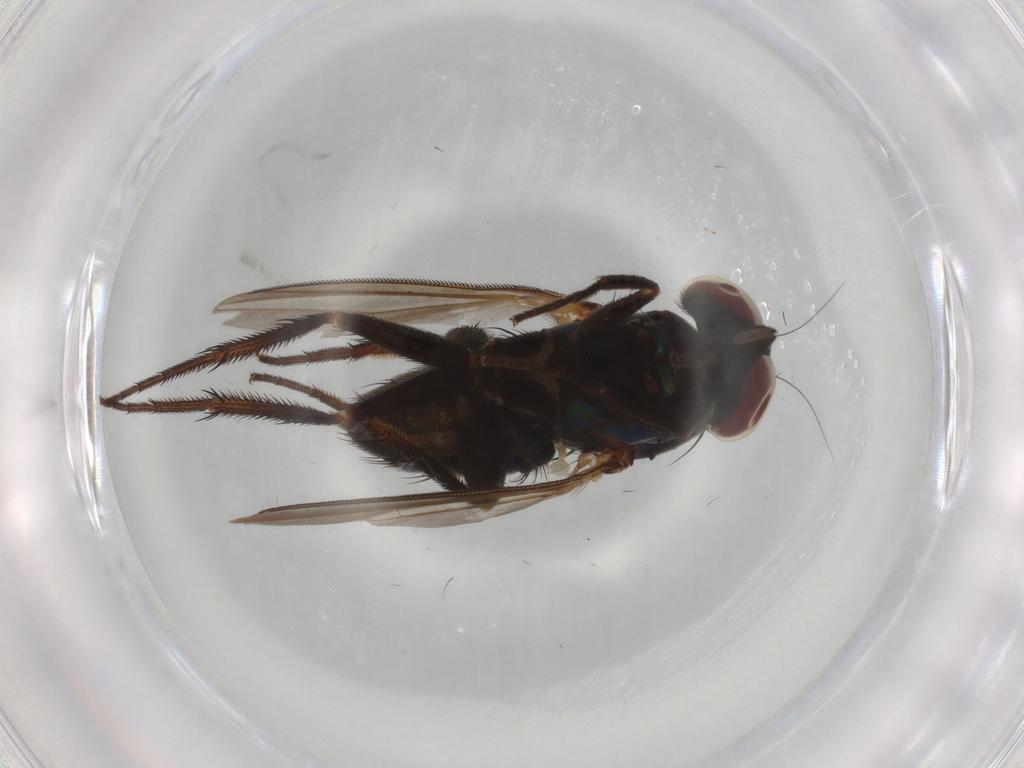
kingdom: Animalia
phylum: Arthropoda
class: Insecta
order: Diptera
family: Dolichopodidae
